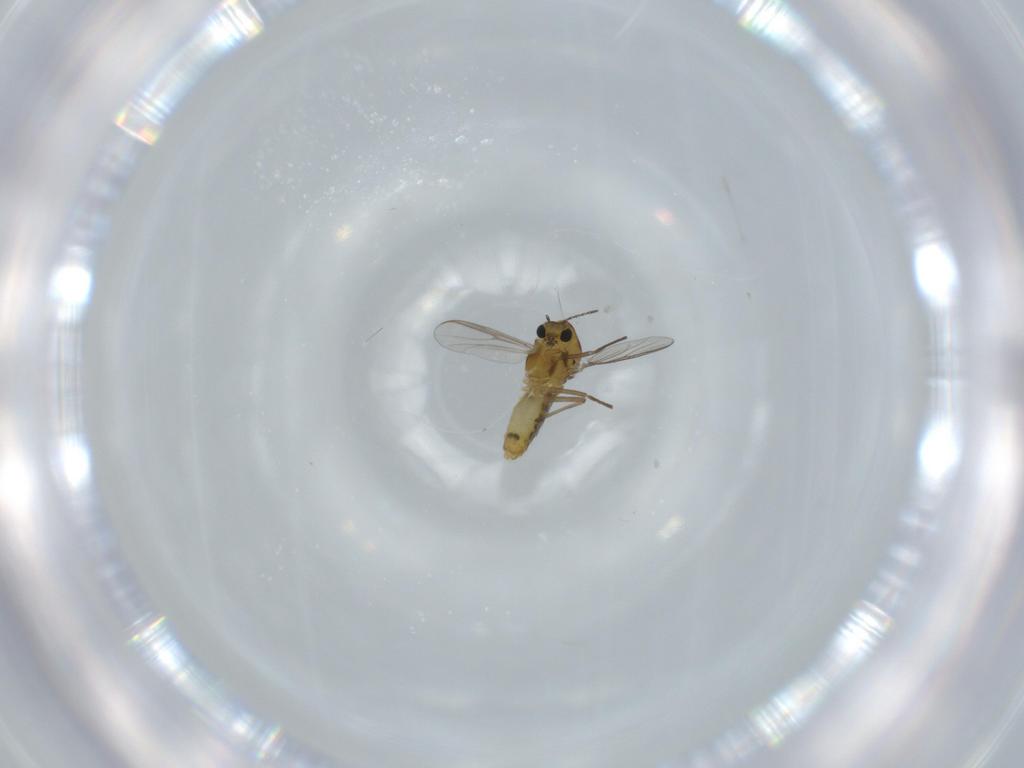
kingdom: Animalia
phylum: Arthropoda
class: Insecta
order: Diptera
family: Chironomidae
